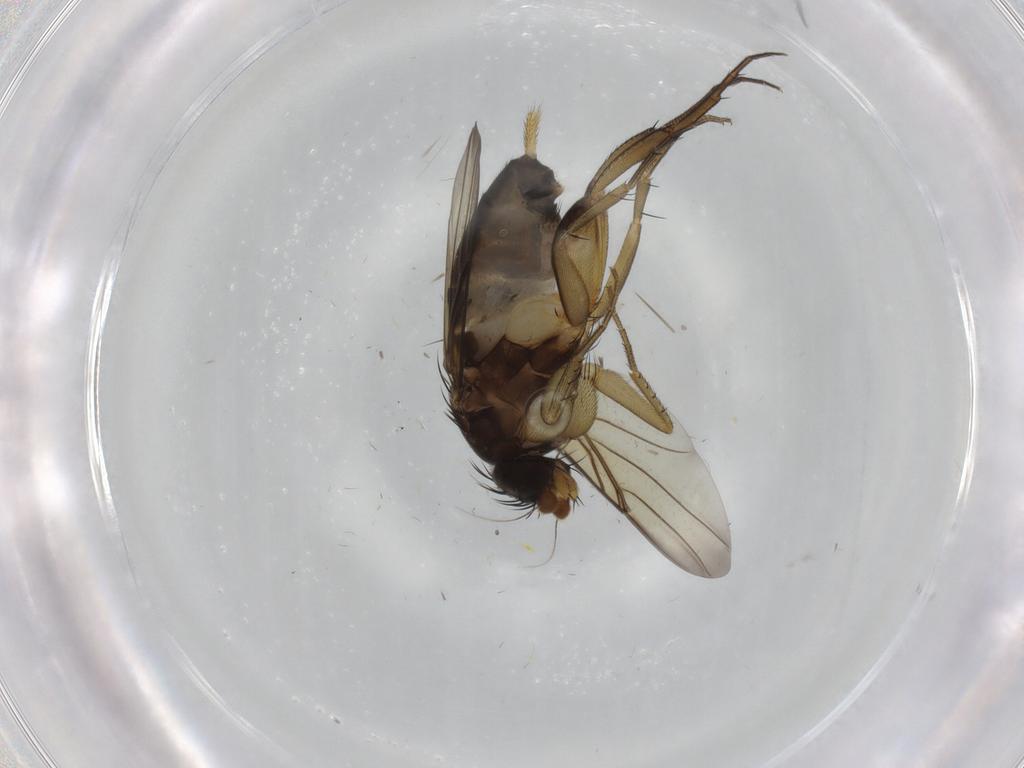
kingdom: Animalia
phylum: Arthropoda
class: Insecta
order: Diptera
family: Phoridae
